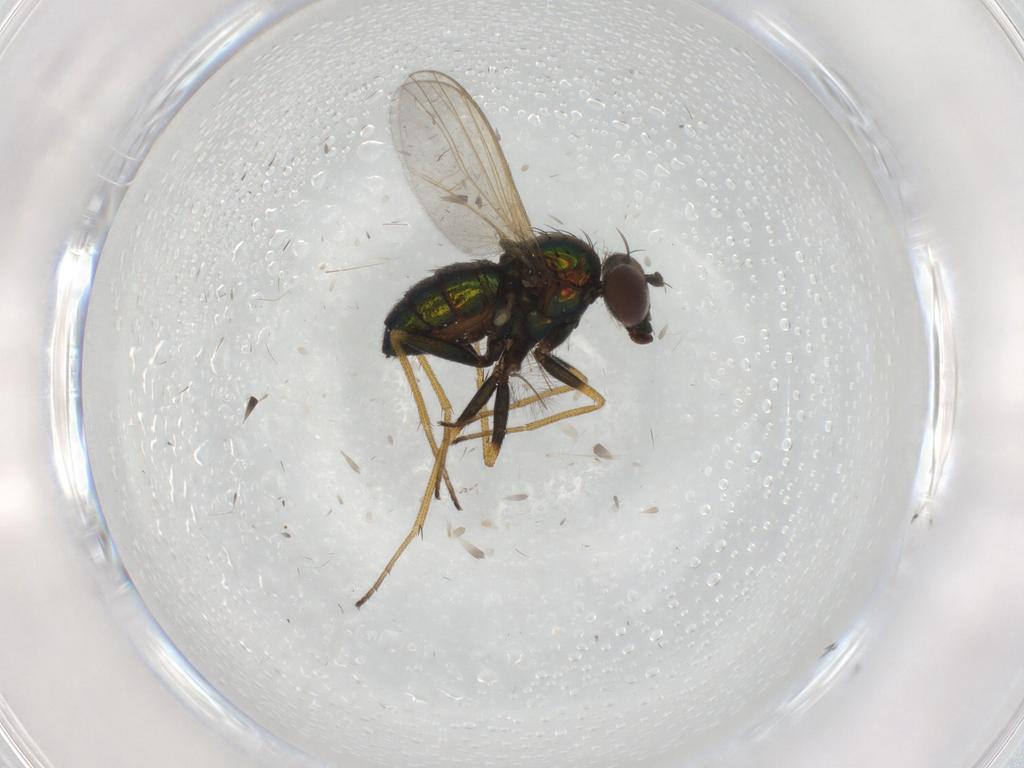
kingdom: Animalia
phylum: Arthropoda
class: Insecta
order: Diptera
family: Dolichopodidae
